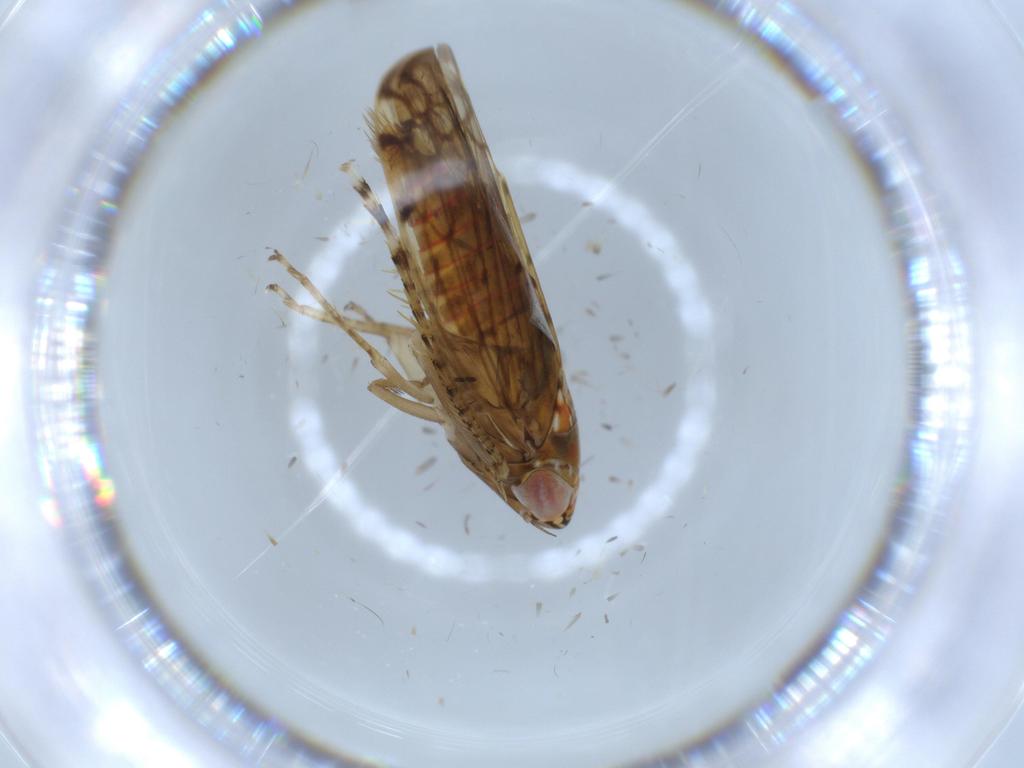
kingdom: Animalia
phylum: Arthropoda
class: Insecta
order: Hemiptera
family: Cicadellidae
